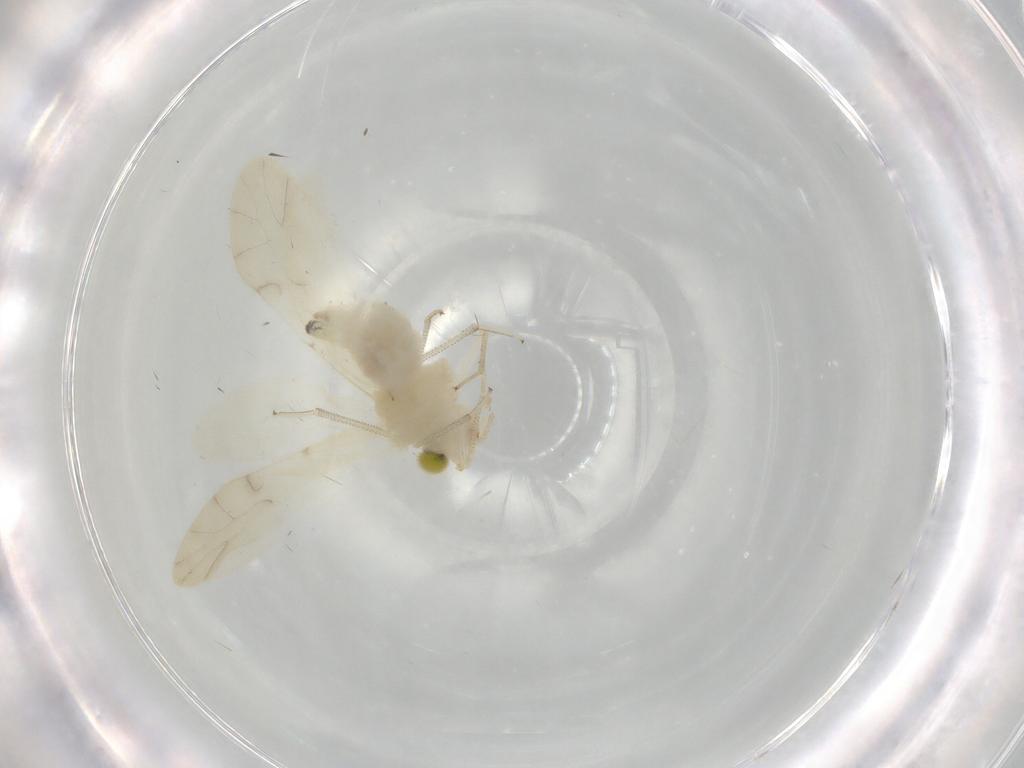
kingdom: Animalia
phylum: Arthropoda
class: Insecta
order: Psocodea
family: Caeciliusidae
